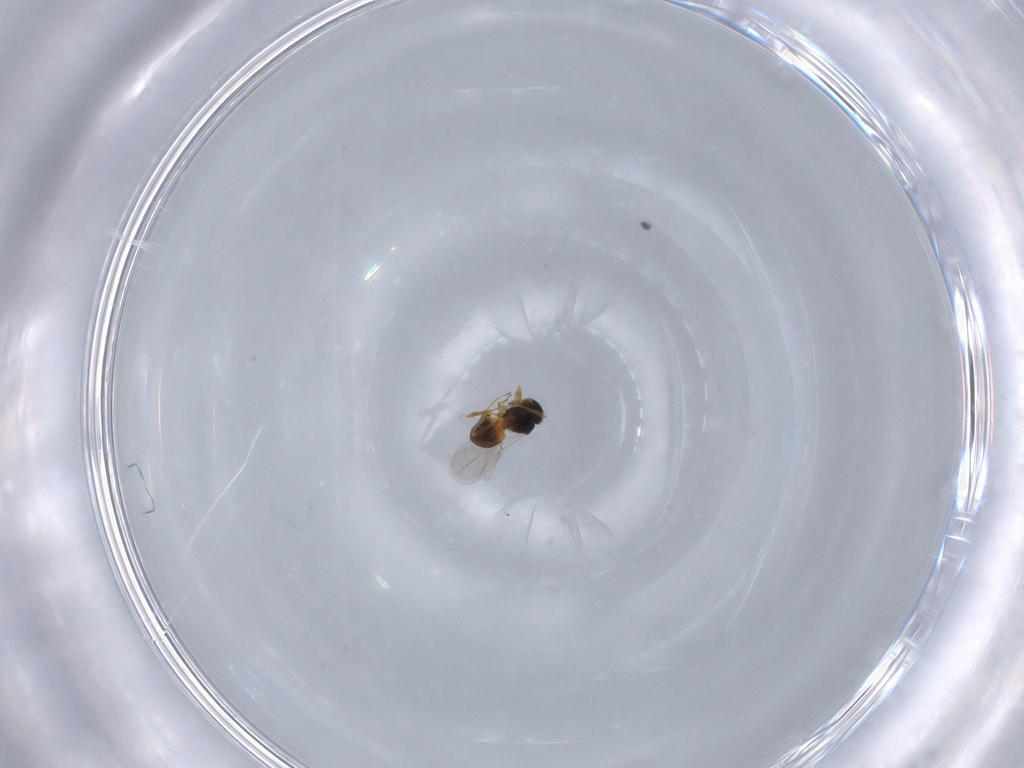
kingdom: Animalia
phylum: Arthropoda
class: Insecta
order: Hymenoptera
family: Platygastridae
